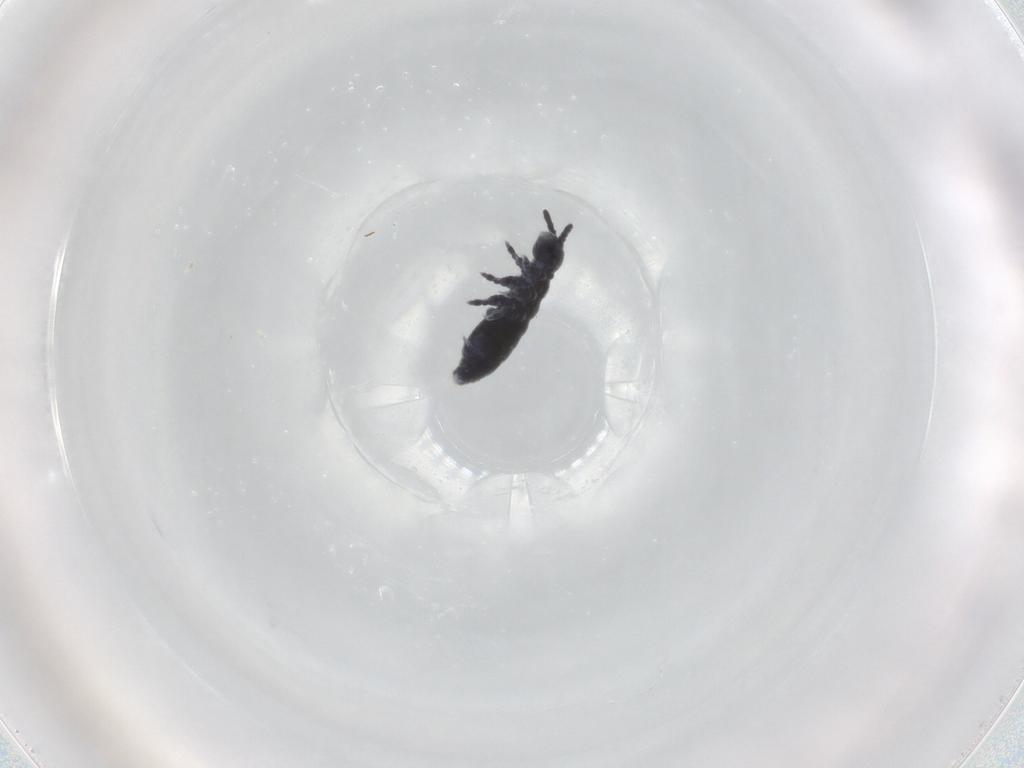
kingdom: Animalia
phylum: Arthropoda
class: Collembola
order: Poduromorpha
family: Hypogastruridae
